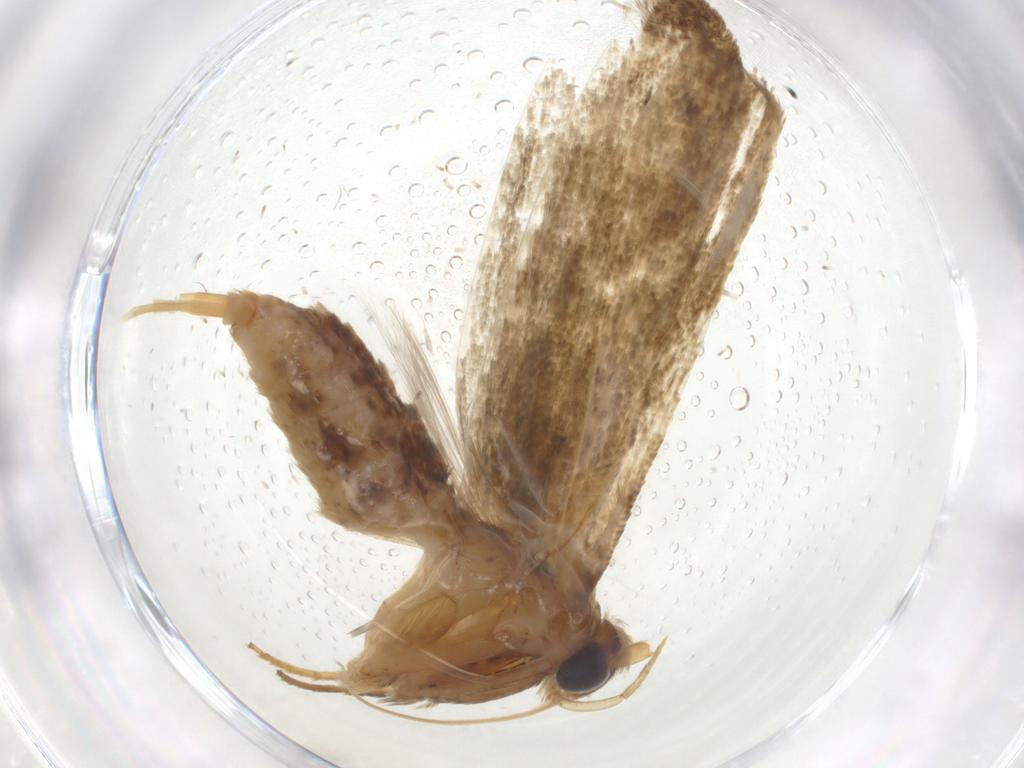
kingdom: Animalia
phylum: Arthropoda
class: Insecta
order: Lepidoptera
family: Blastobasidae
